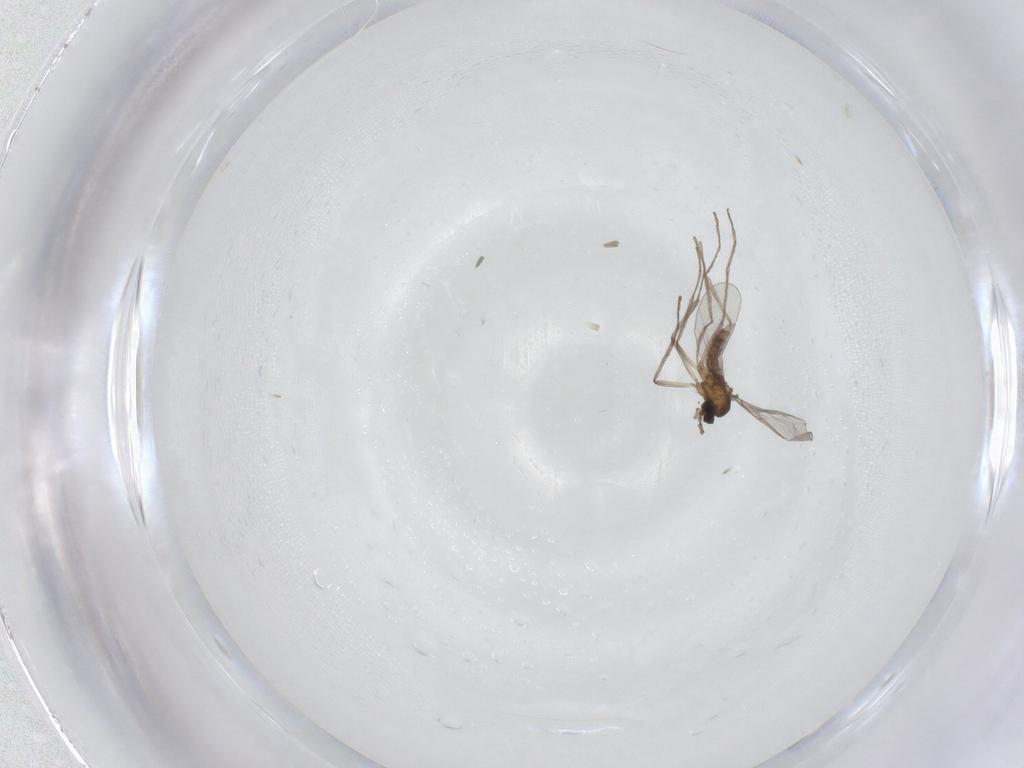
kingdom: Animalia
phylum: Arthropoda
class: Insecta
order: Diptera
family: Cecidomyiidae
